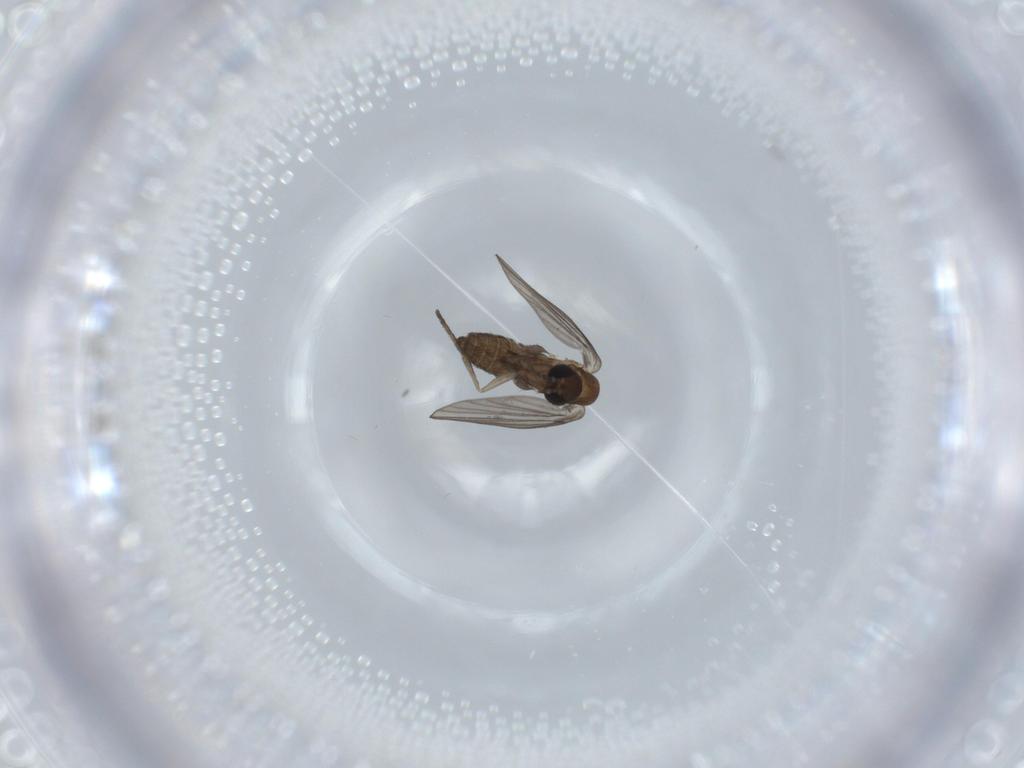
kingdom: Animalia
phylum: Arthropoda
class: Insecta
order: Diptera
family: Psychodidae
